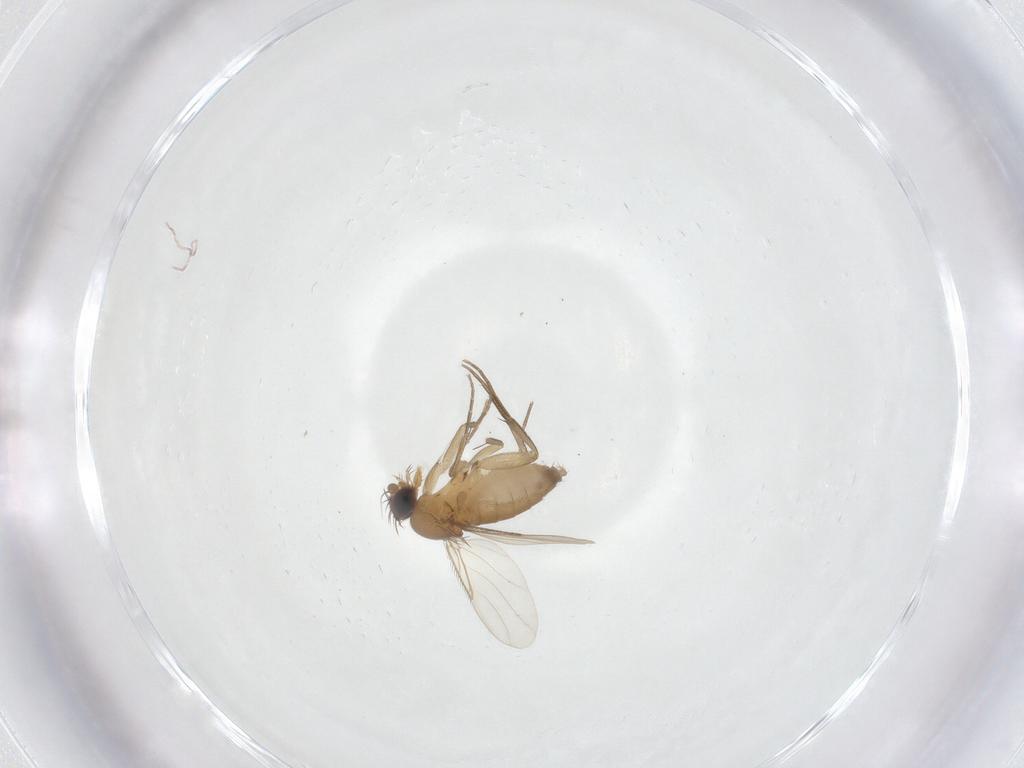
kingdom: Animalia
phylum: Arthropoda
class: Insecta
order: Diptera
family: Phoridae
